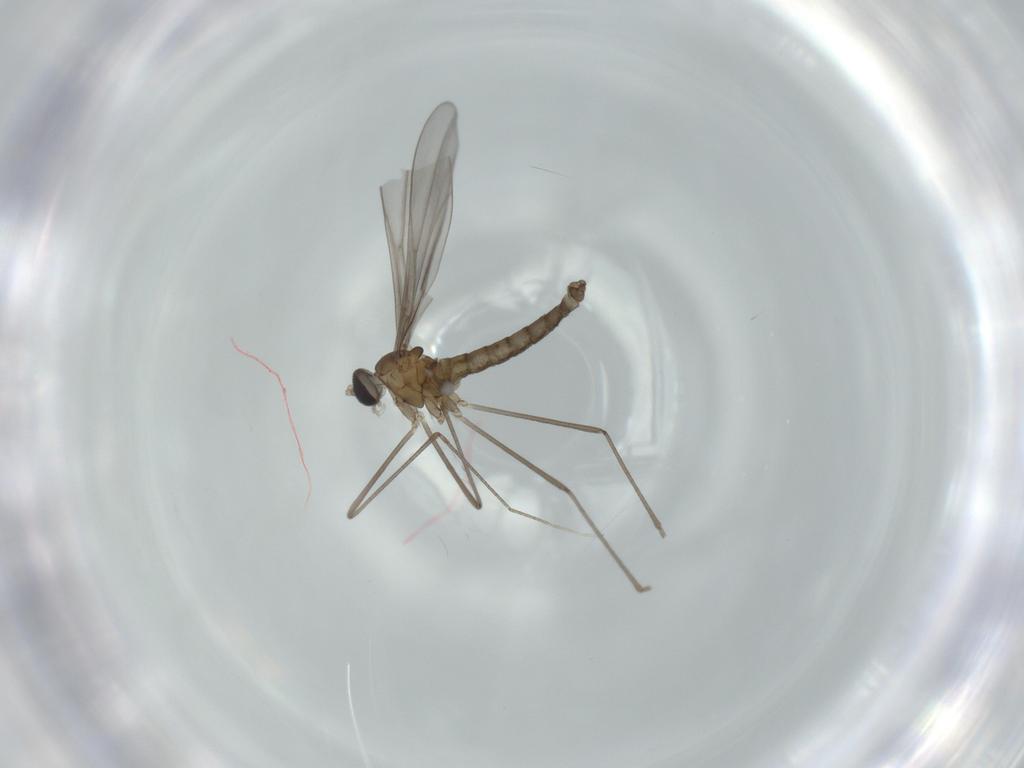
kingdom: Animalia
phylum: Arthropoda
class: Insecta
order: Diptera
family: Cecidomyiidae
